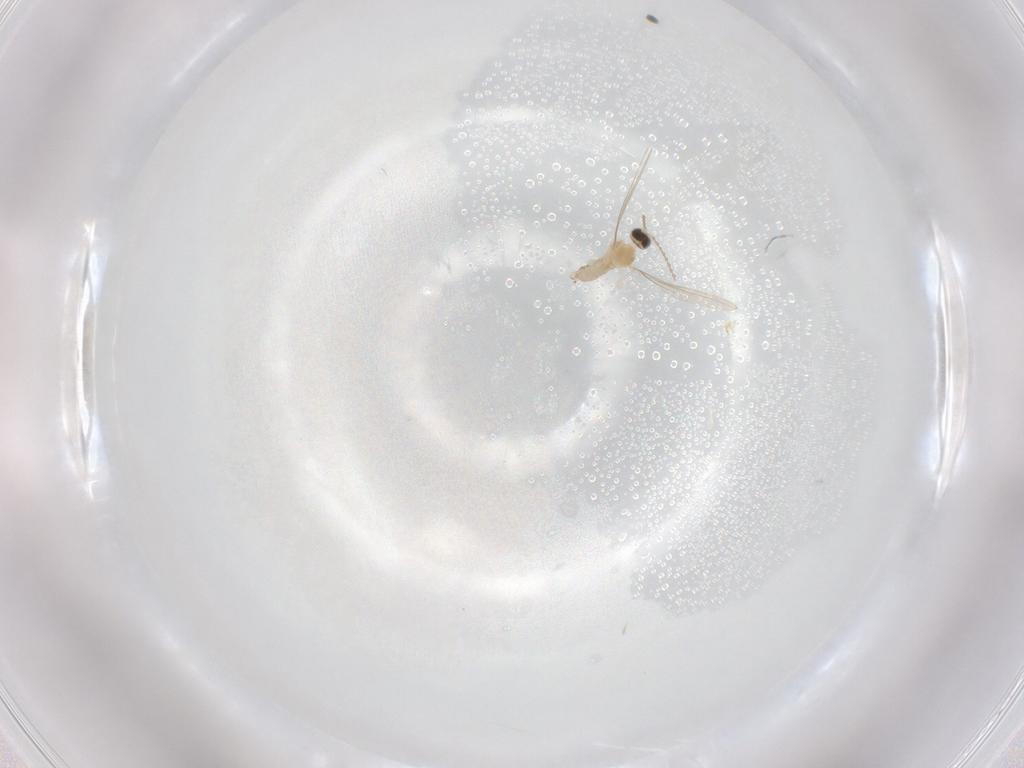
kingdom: Animalia
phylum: Arthropoda
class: Insecta
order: Diptera
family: Cecidomyiidae
